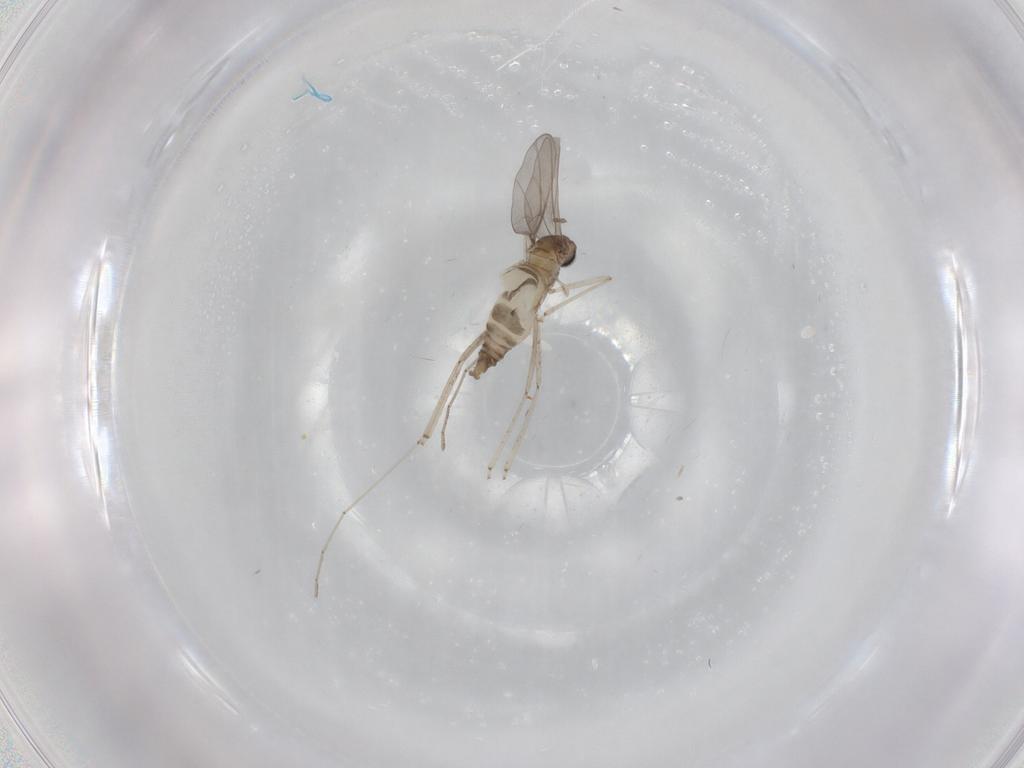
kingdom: Animalia
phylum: Arthropoda
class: Insecta
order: Diptera
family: Cecidomyiidae
